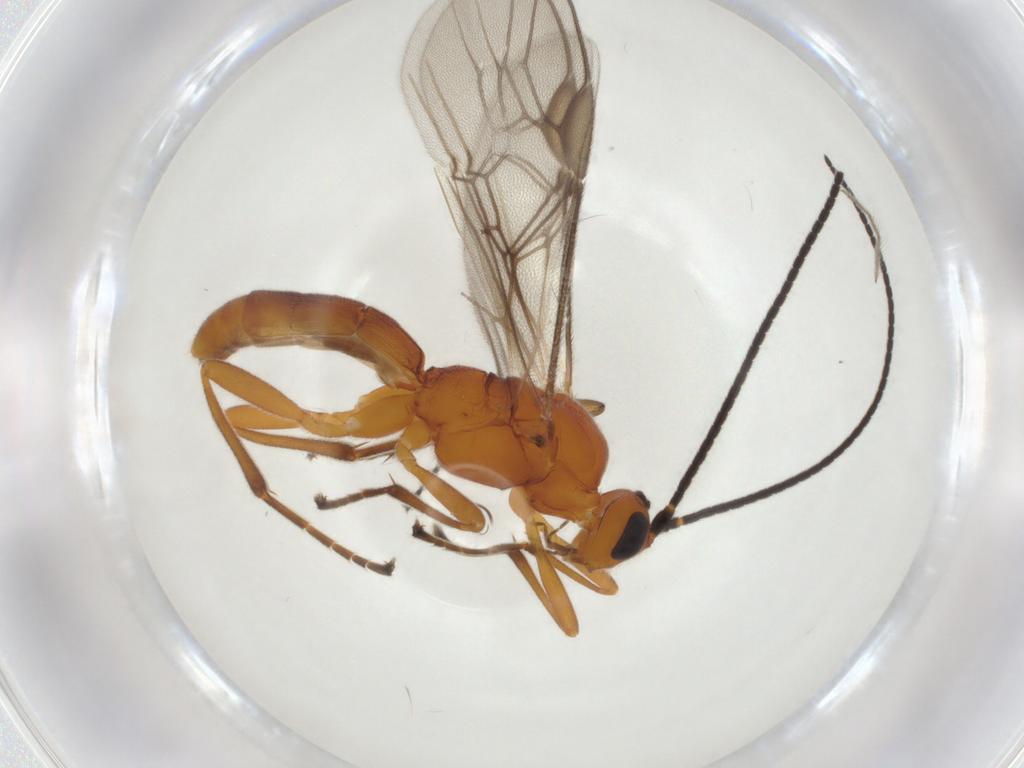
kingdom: Animalia
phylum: Arthropoda
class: Insecta
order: Hymenoptera
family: Braconidae
